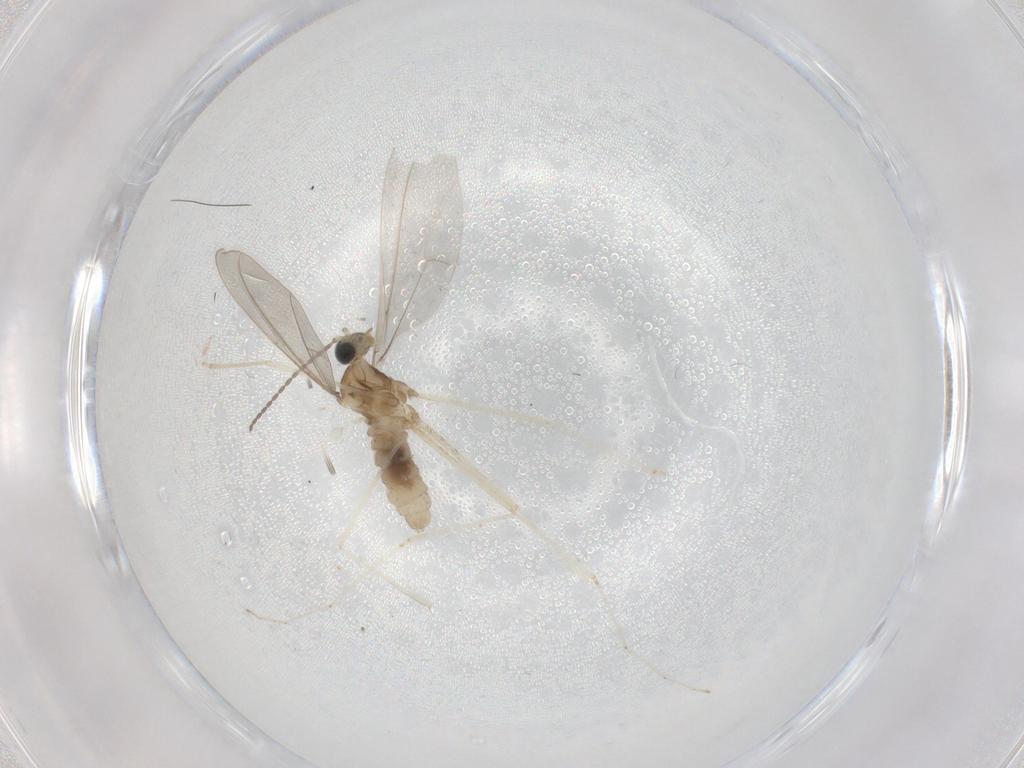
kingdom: Animalia
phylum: Arthropoda
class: Insecta
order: Diptera
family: Cecidomyiidae
